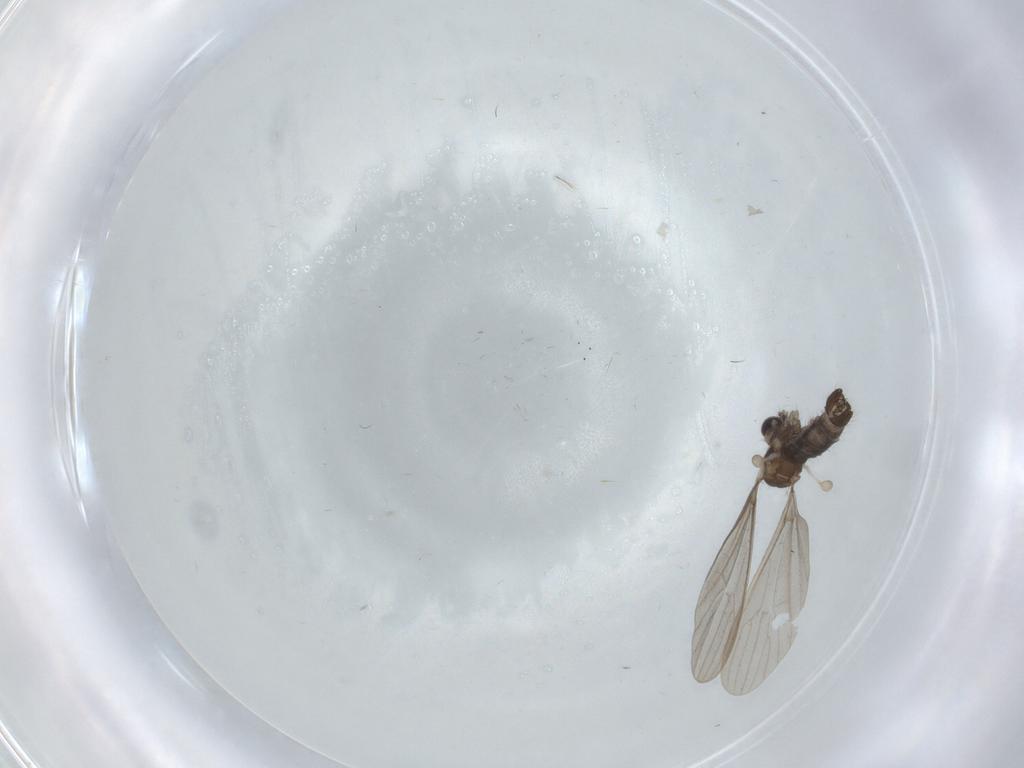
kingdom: Animalia
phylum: Arthropoda
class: Insecta
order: Diptera
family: Limoniidae
